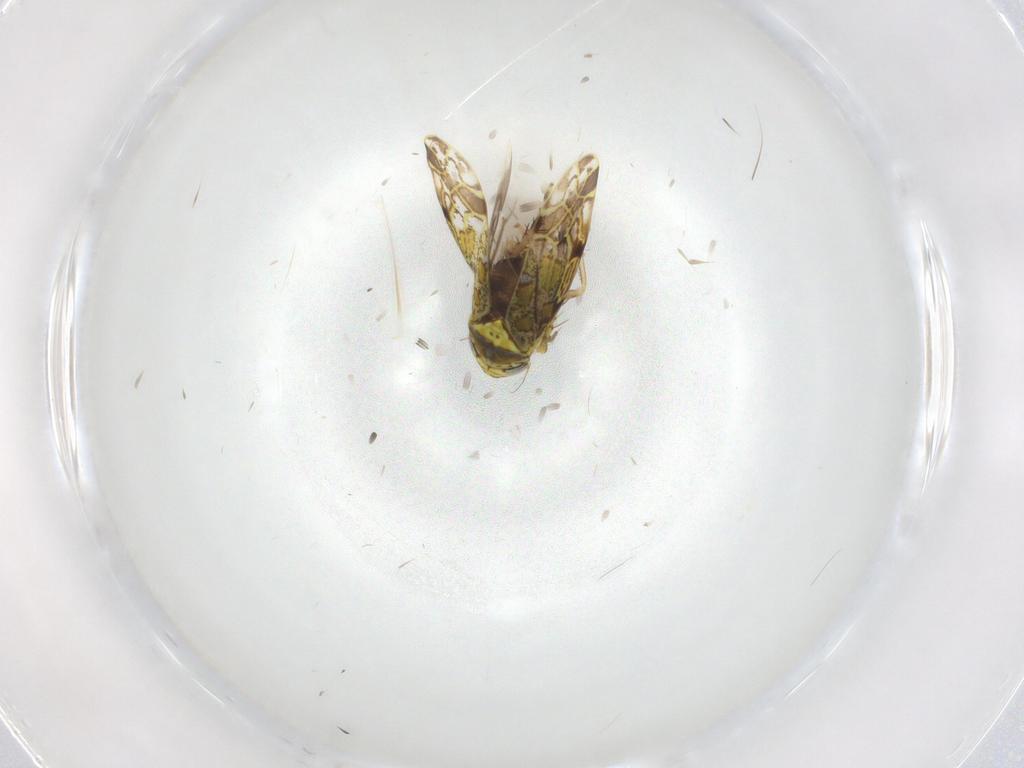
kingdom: Animalia
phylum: Arthropoda
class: Insecta
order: Hemiptera
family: Cicadellidae
